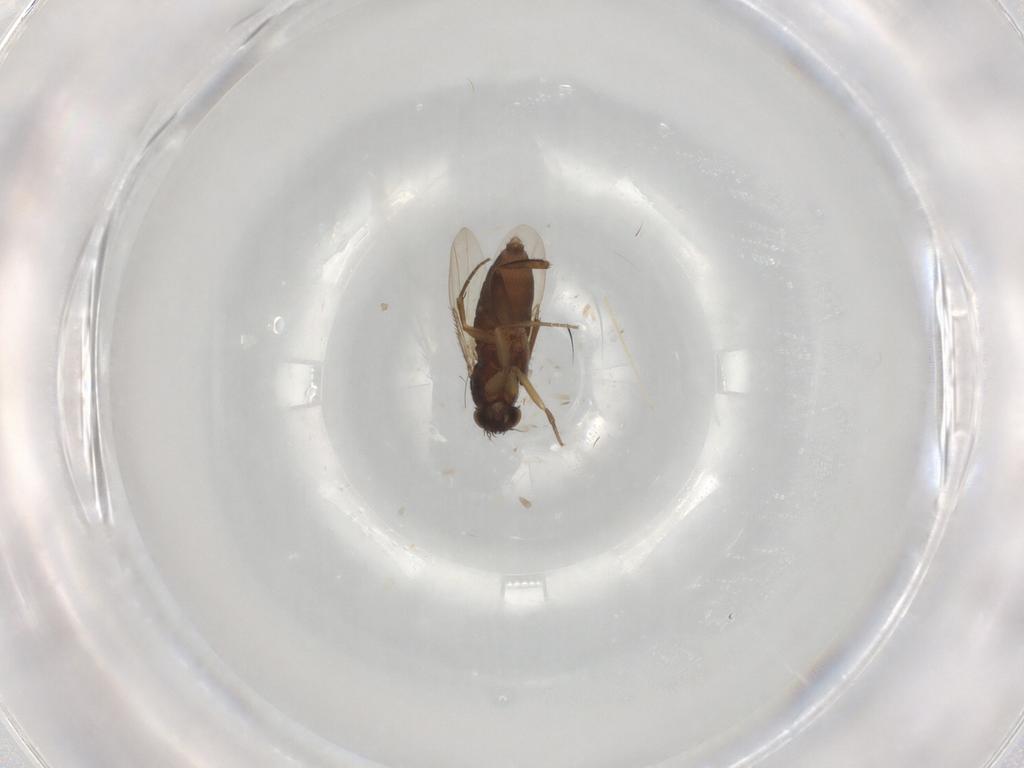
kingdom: Animalia
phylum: Arthropoda
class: Insecta
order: Diptera
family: Phoridae
